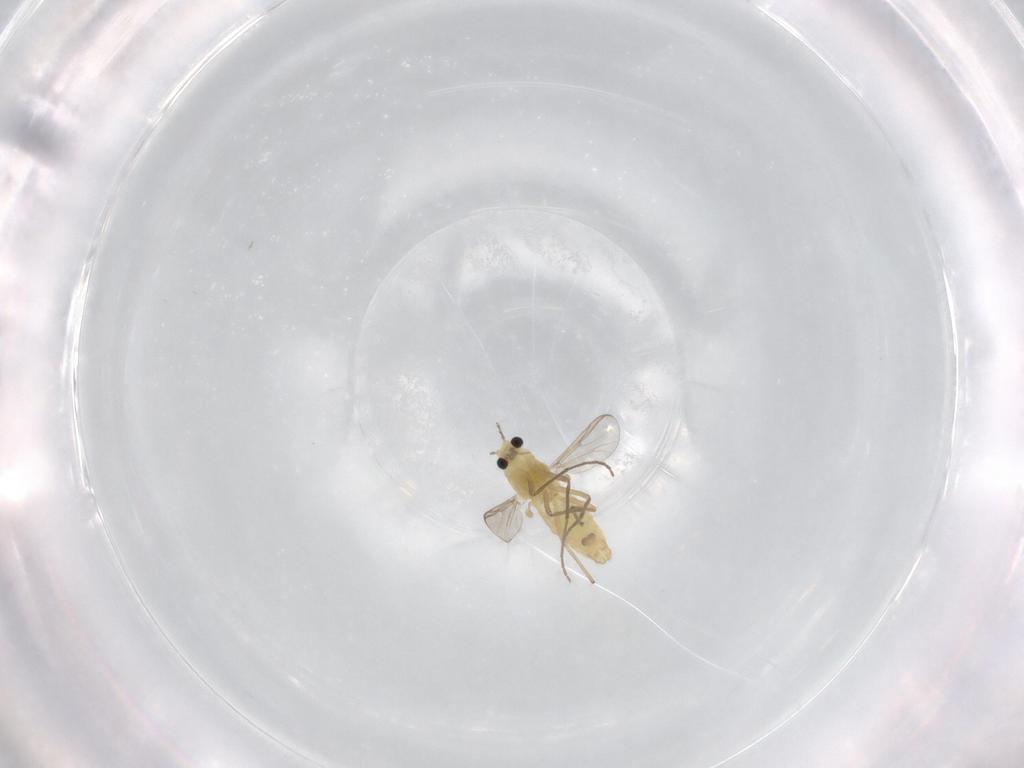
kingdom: Animalia
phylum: Arthropoda
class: Insecta
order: Diptera
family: Chironomidae
